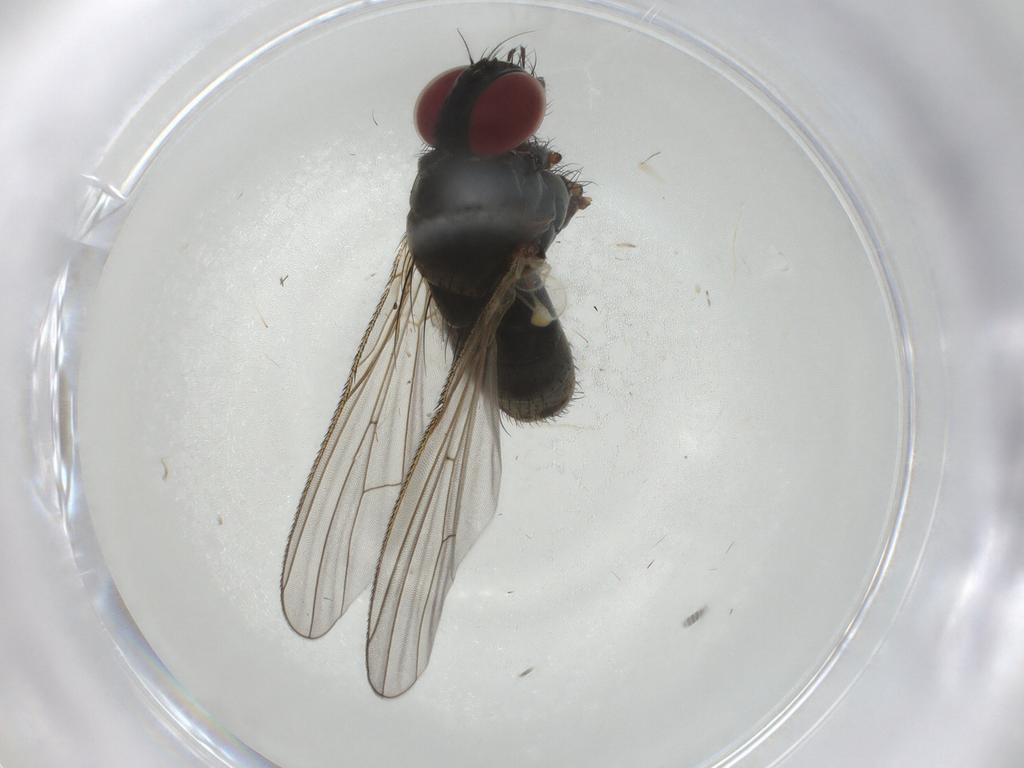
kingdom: Animalia
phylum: Arthropoda
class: Insecta
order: Diptera
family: Muscidae
